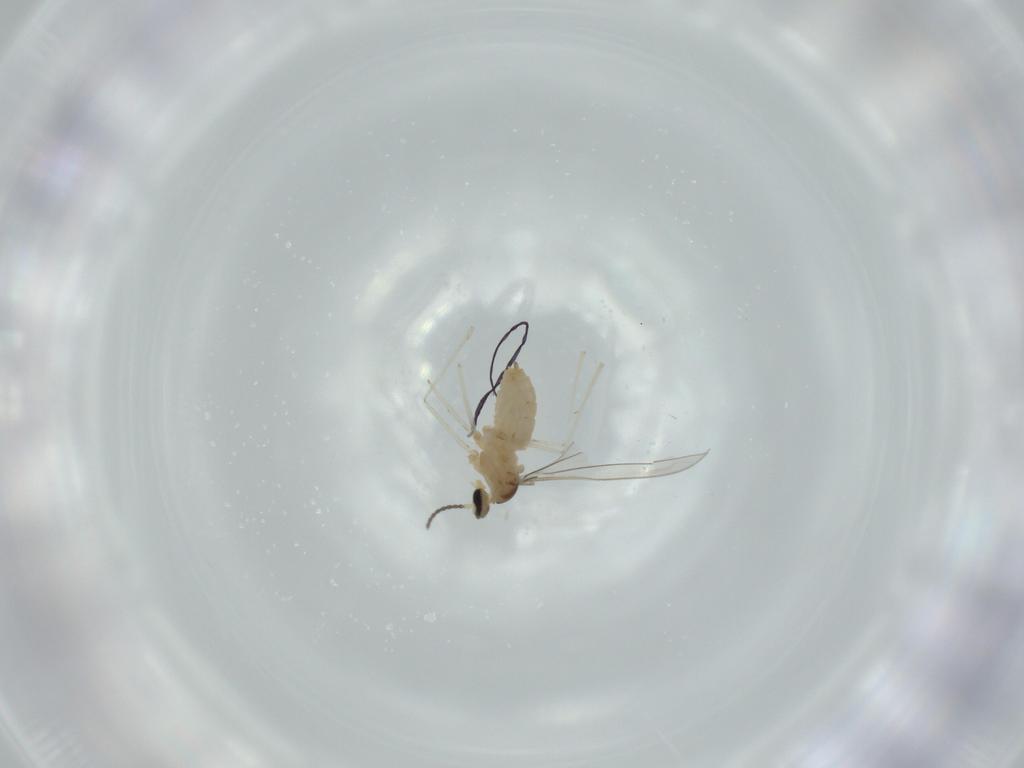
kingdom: Animalia
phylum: Arthropoda
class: Insecta
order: Diptera
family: Cecidomyiidae
